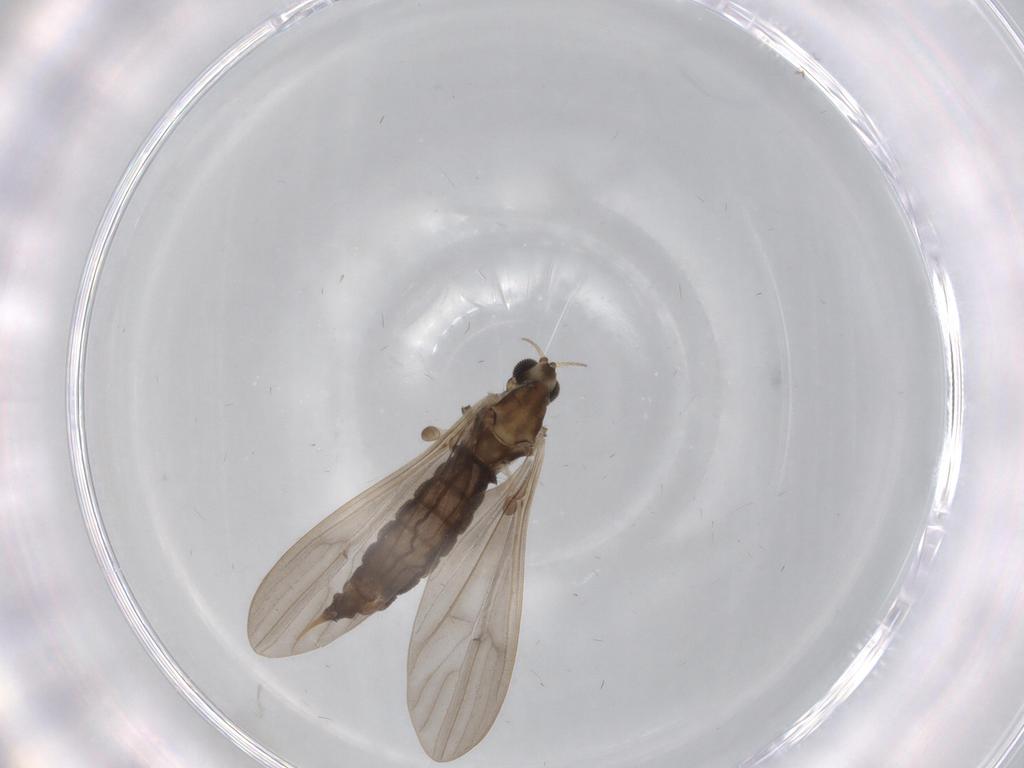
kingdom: Animalia
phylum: Arthropoda
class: Insecta
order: Diptera
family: Limoniidae
